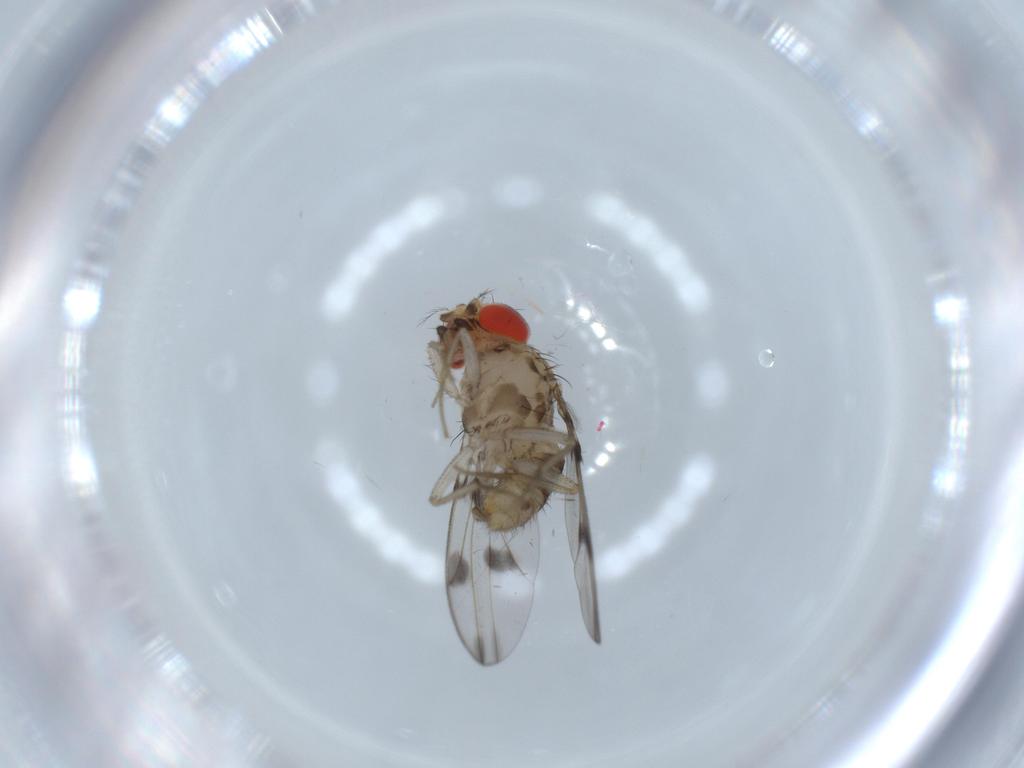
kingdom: Animalia
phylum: Arthropoda
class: Insecta
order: Diptera
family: Drosophilidae
